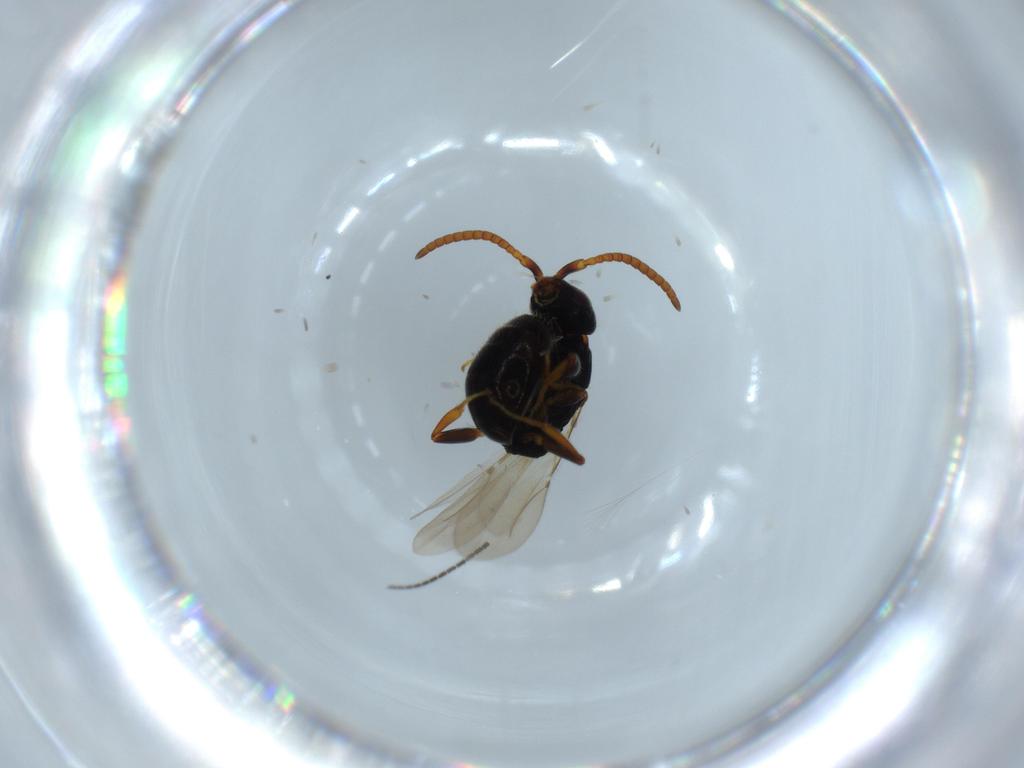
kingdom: Animalia
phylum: Arthropoda
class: Insecta
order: Hymenoptera
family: Bethylidae
